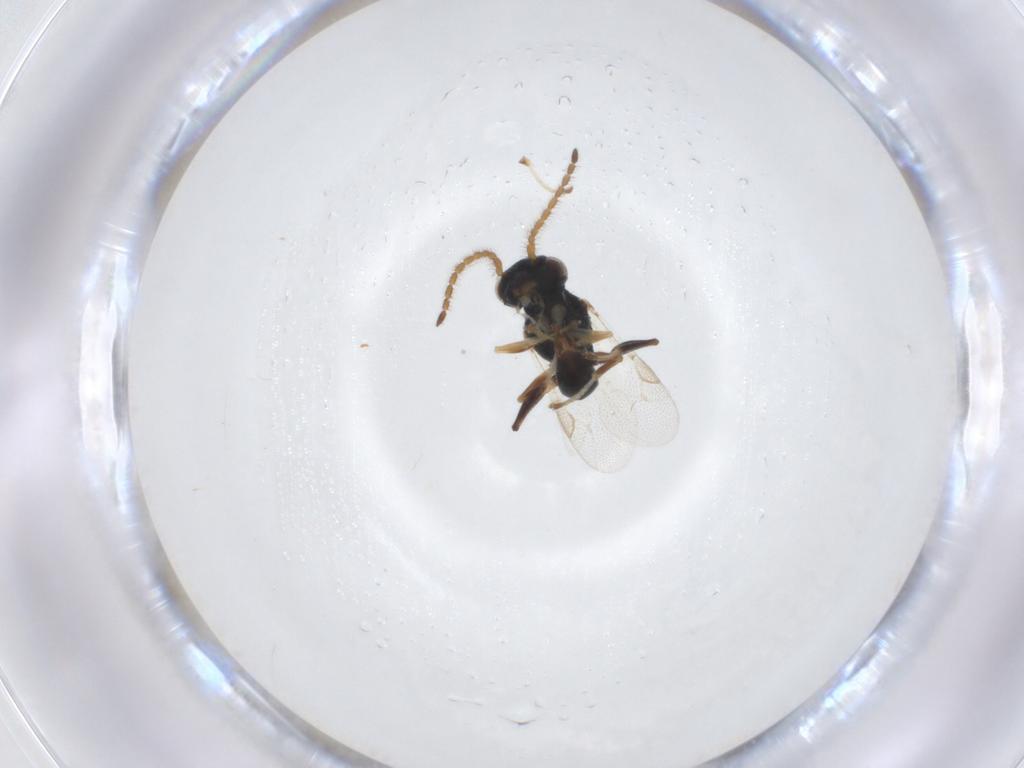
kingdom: Animalia
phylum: Arthropoda
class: Insecta
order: Hymenoptera
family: Dryinidae
